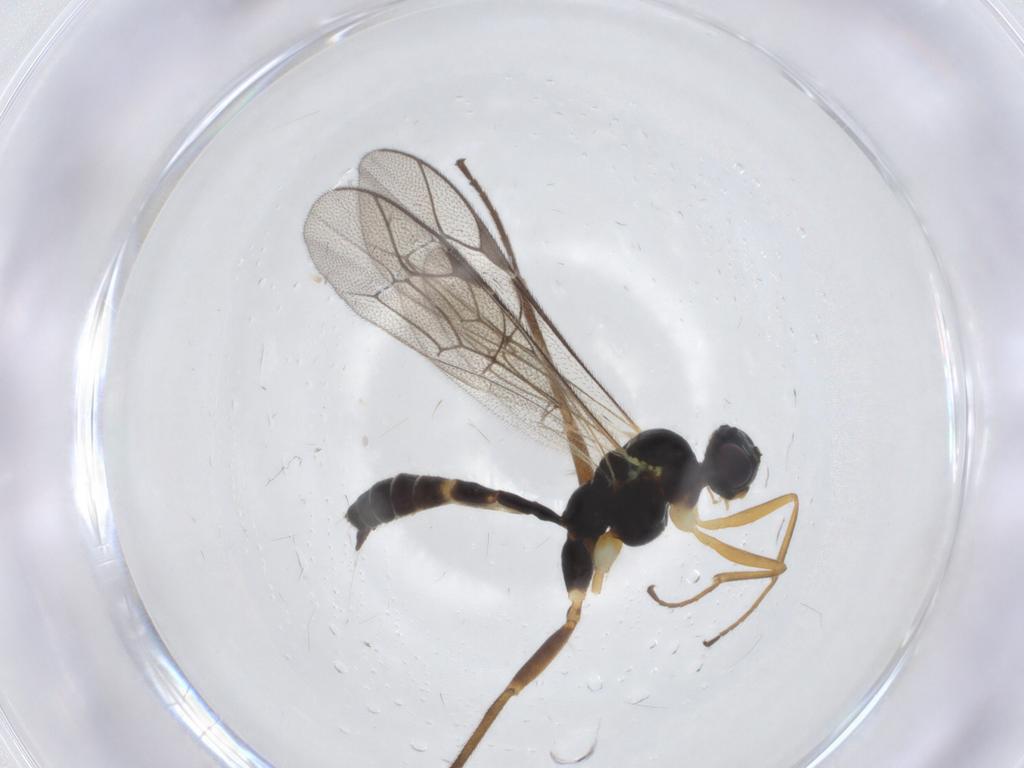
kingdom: Animalia
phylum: Arthropoda
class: Insecta
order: Hymenoptera
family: Ichneumonidae
